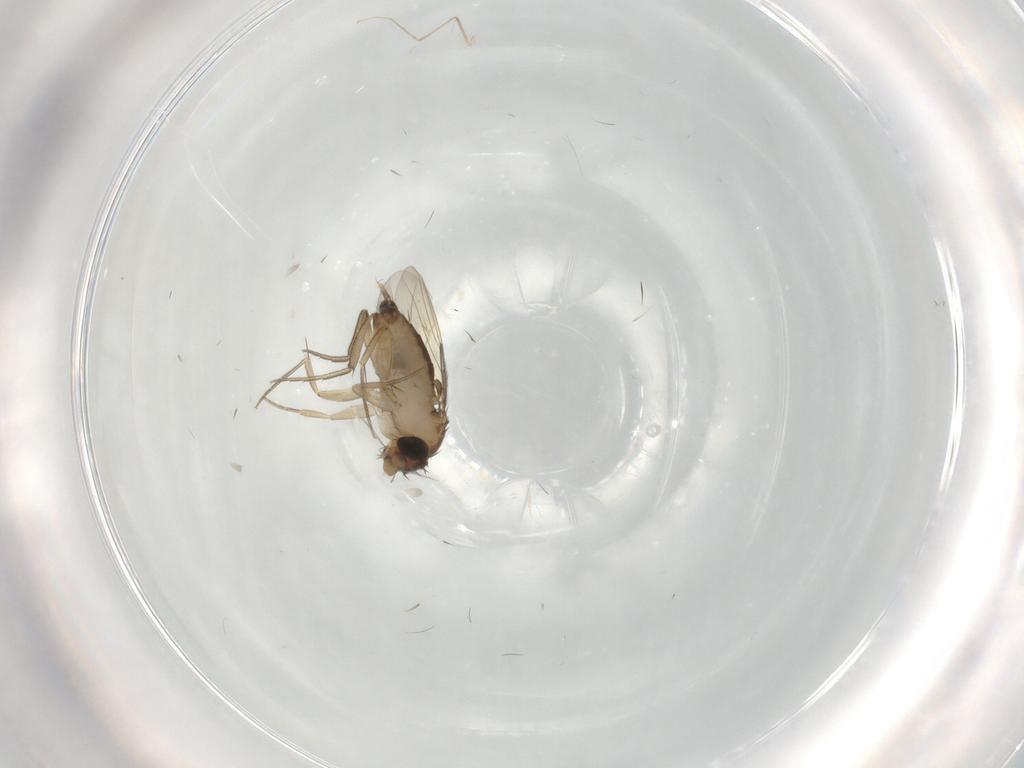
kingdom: Animalia
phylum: Arthropoda
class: Insecta
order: Diptera
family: Phoridae
